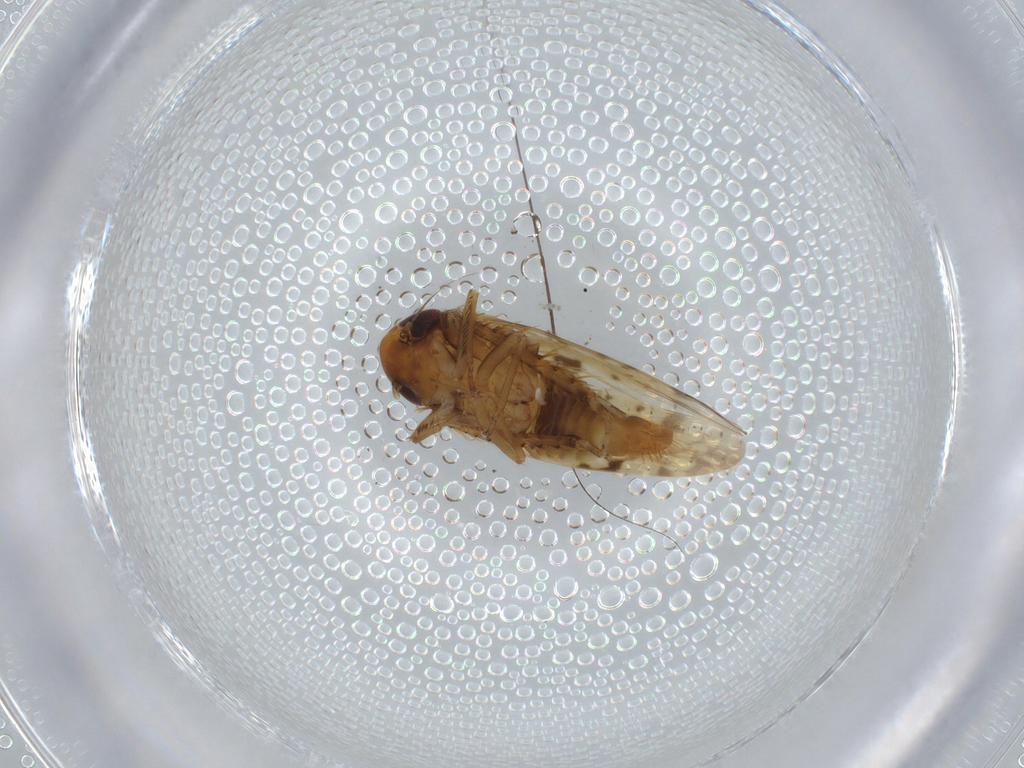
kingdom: Animalia
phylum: Arthropoda
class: Insecta
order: Hemiptera
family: Cicadellidae
